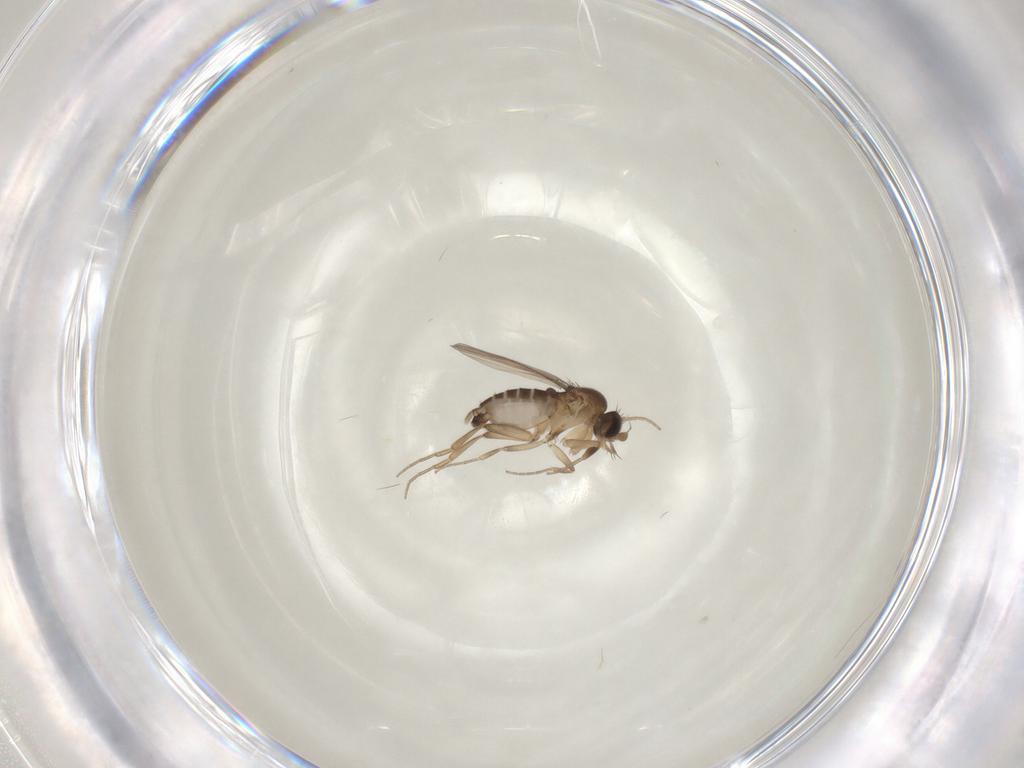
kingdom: Animalia
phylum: Arthropoda
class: Insecta
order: Diptera
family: Phoridae
